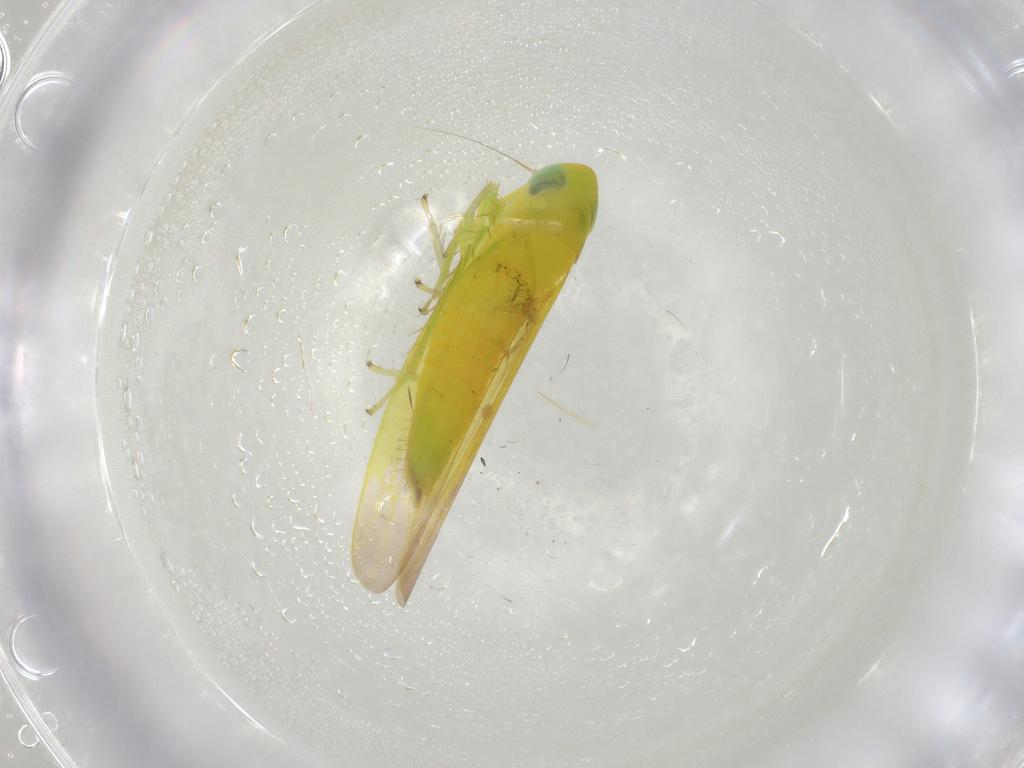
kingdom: Animalia
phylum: Arthropoda
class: Insecta
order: Hemiptera
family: Cicadellidae
